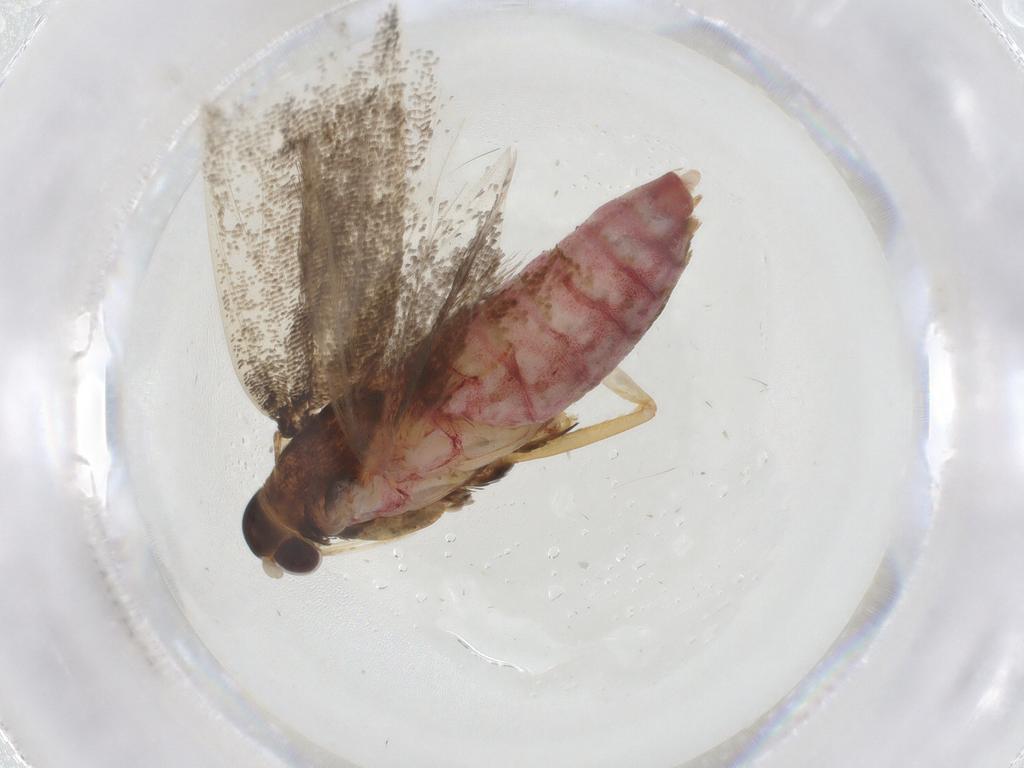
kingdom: Animalia
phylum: Arthropoda
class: Insecta
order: Lepidoptera
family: Lecithoceridae
